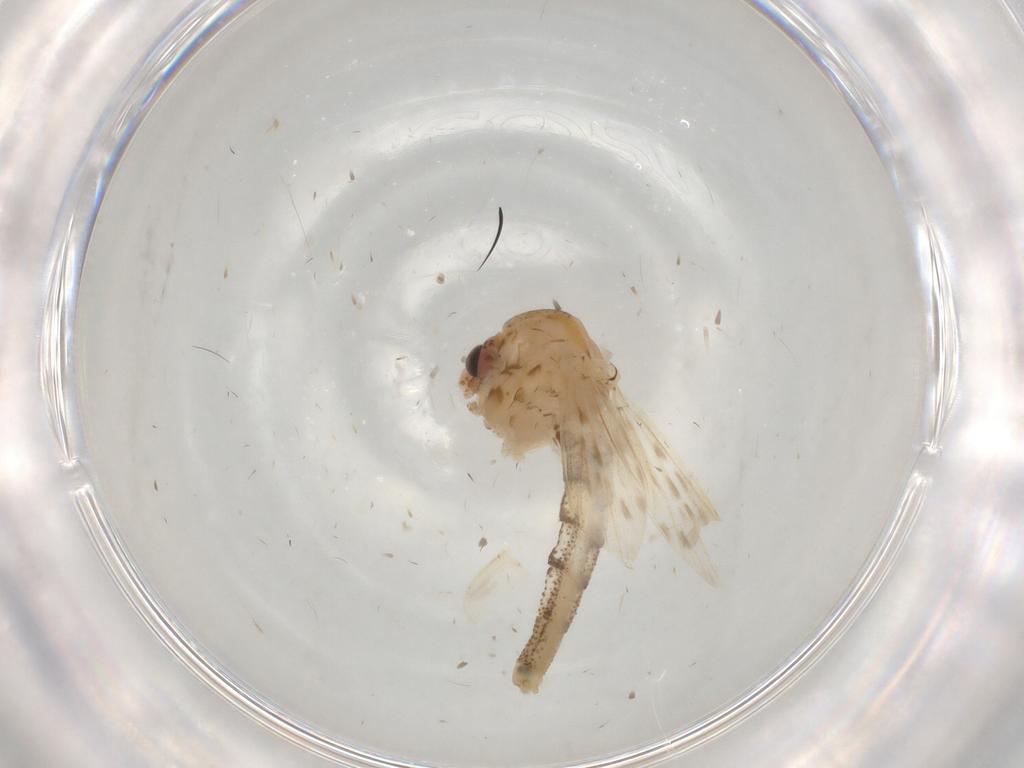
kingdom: Animalia
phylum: Arthropoda
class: Insecta
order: Diptera
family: Chaoboridae
